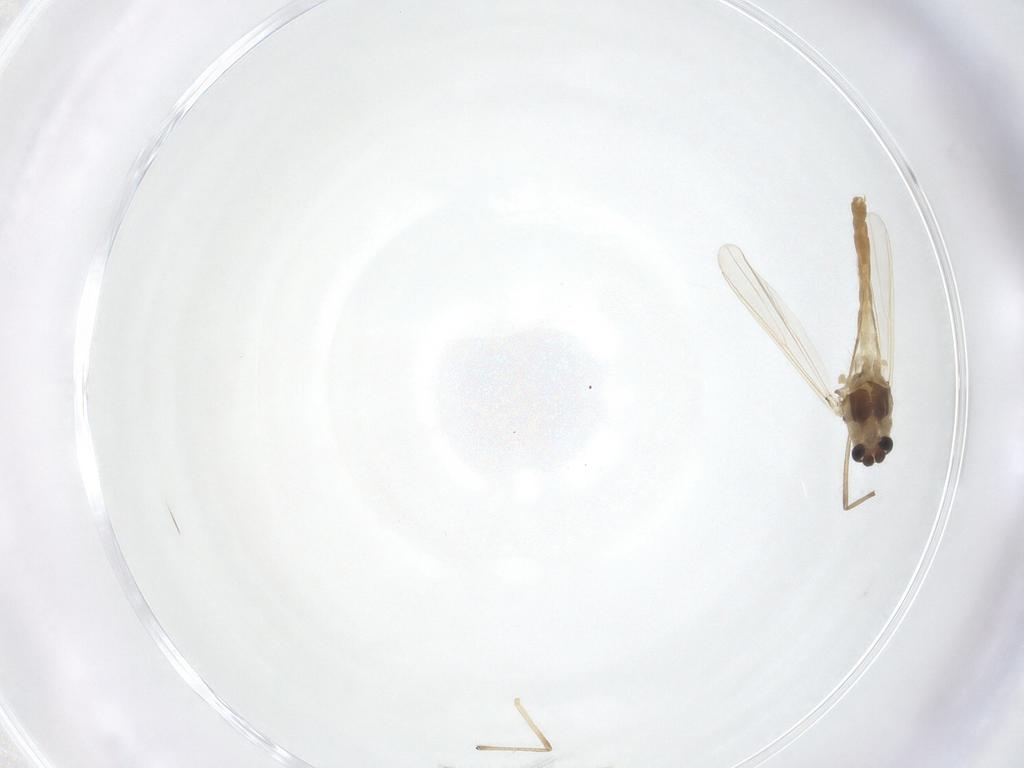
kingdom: Animalia
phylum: Arthropoda
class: Insecta
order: Diptera
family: Chironomidae
